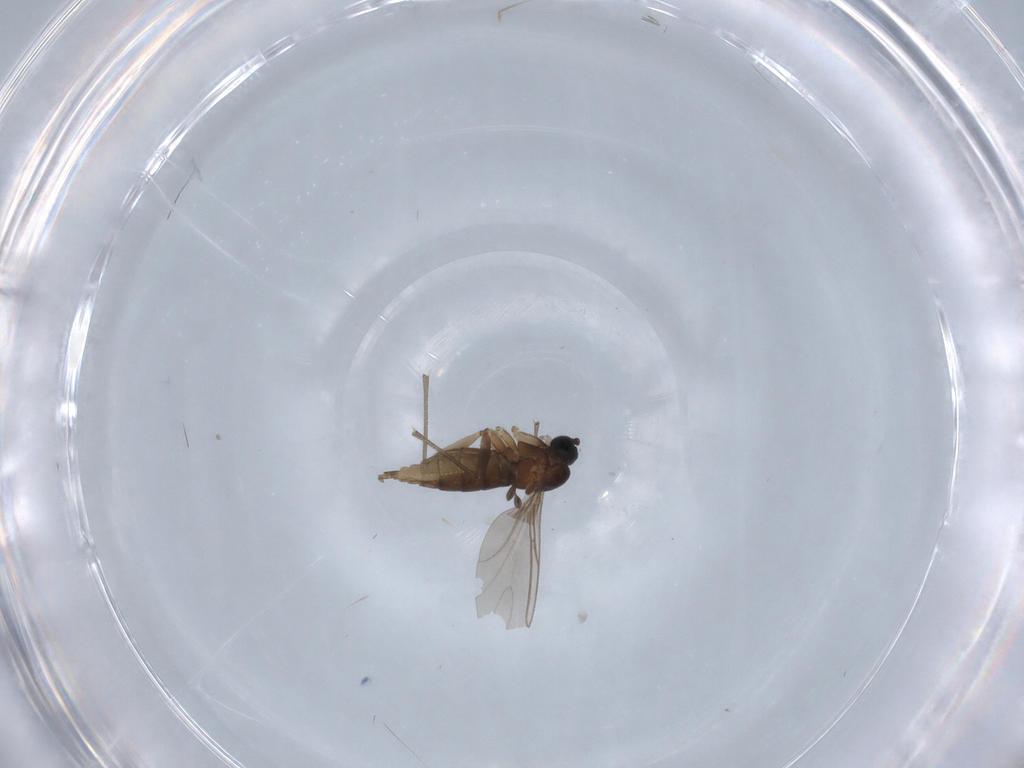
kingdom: Animalia
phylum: Arthropoda
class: Insecta
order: Diptera
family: Sciaridae
